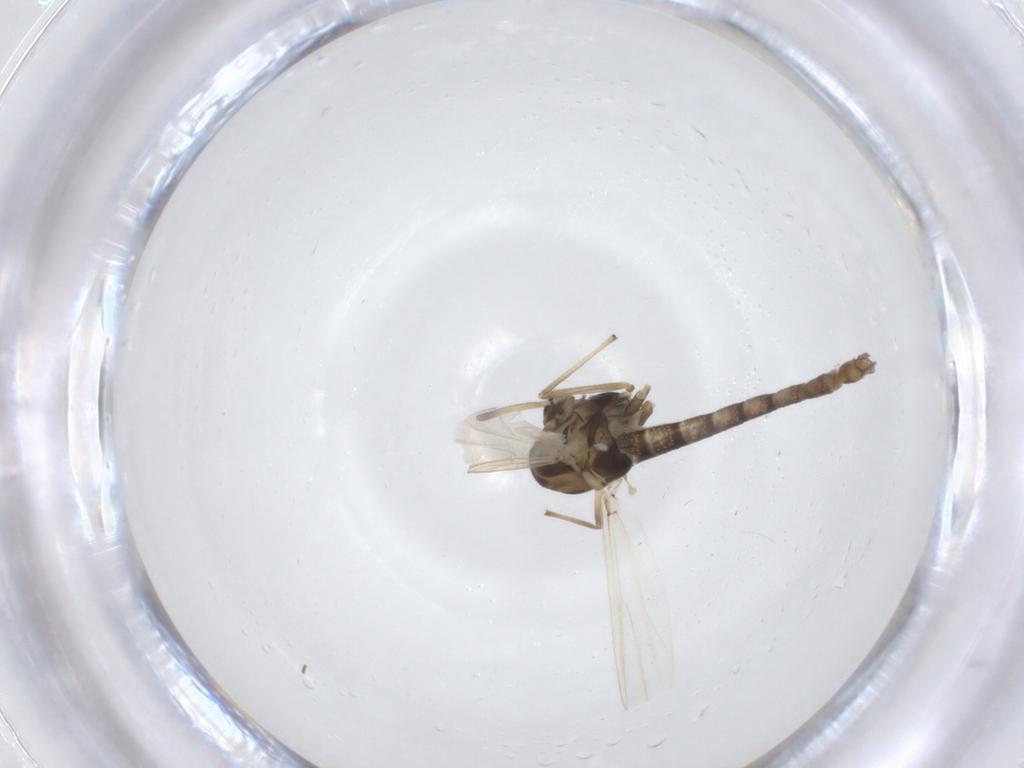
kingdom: Animalia
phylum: Arthropoda
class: Insecta
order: Diptera
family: Chironomidae
